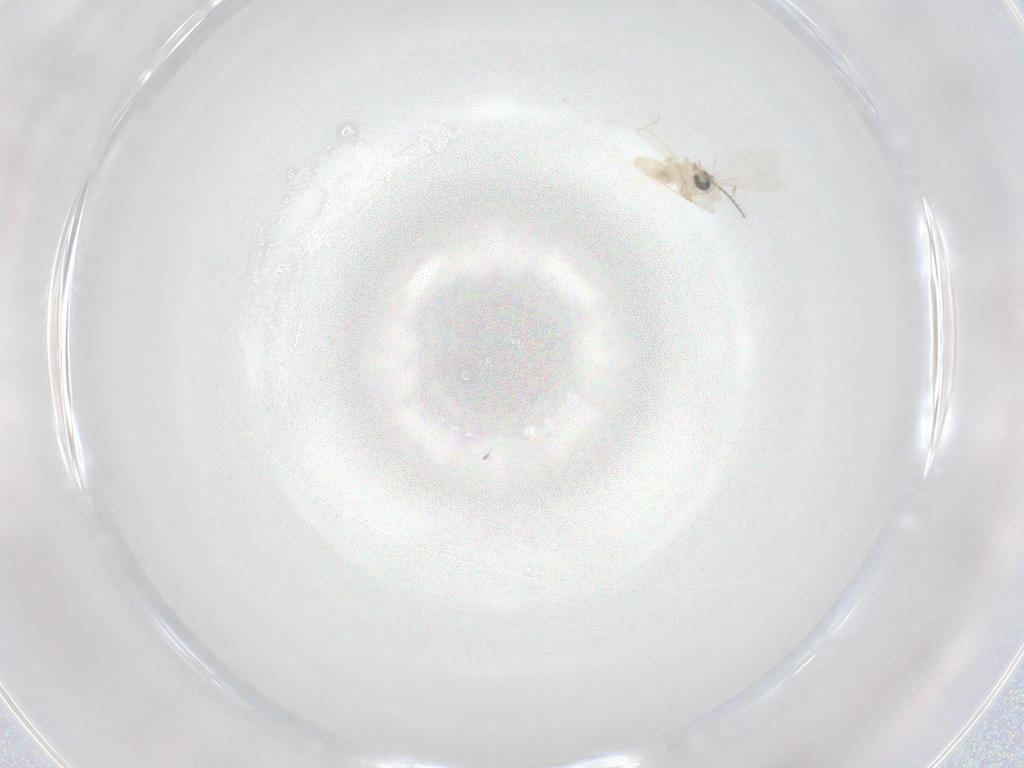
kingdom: Animalia
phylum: Arthropoda
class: Insecta
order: Diptera
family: Cecidomyiidae
